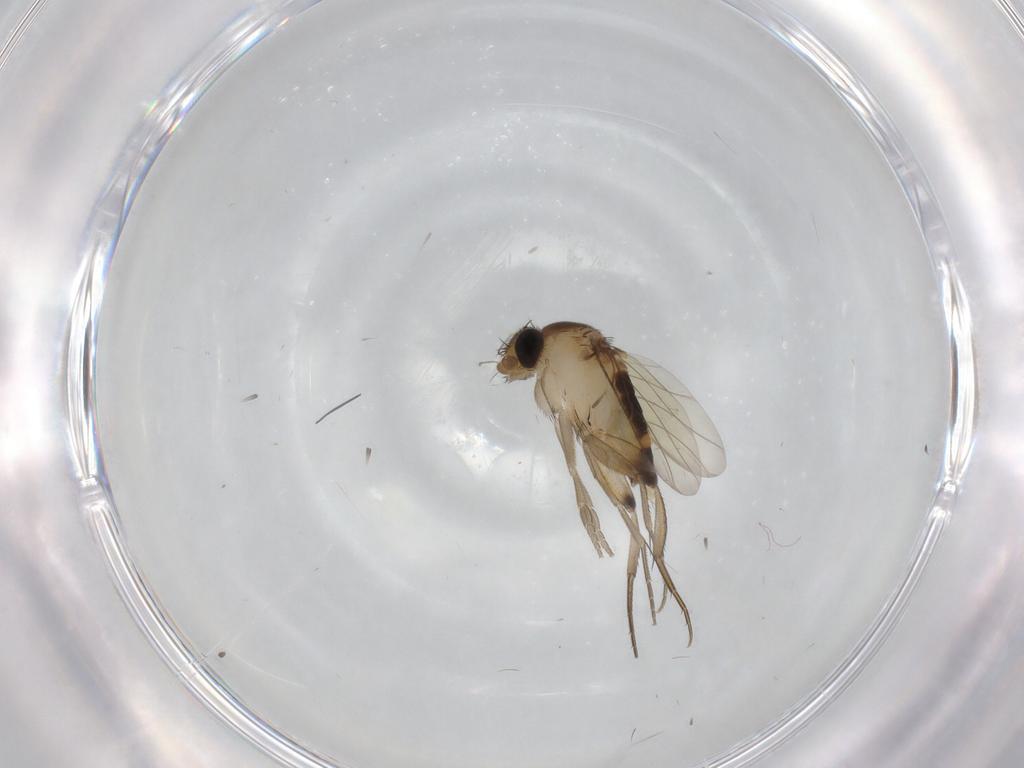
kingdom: Animalia
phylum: Arthropoda
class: Insecta
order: Diptera
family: Phoridae
